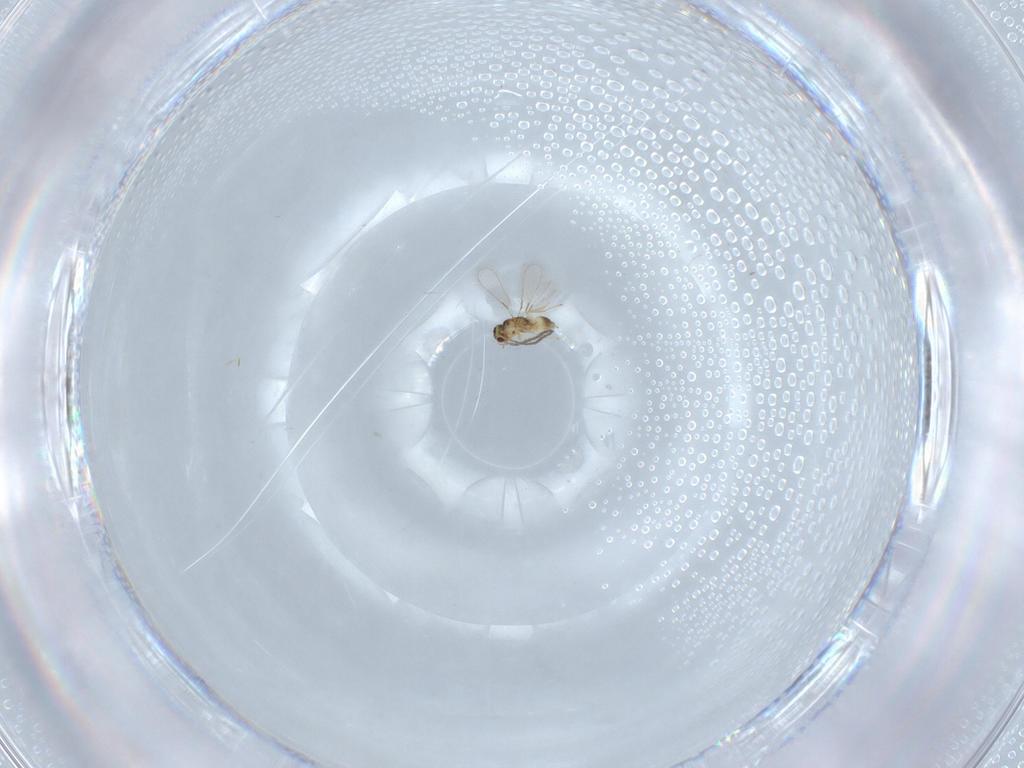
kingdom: Animalia
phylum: Arthropoda
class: Insecta
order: Hymenoptera
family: Mymaridae
